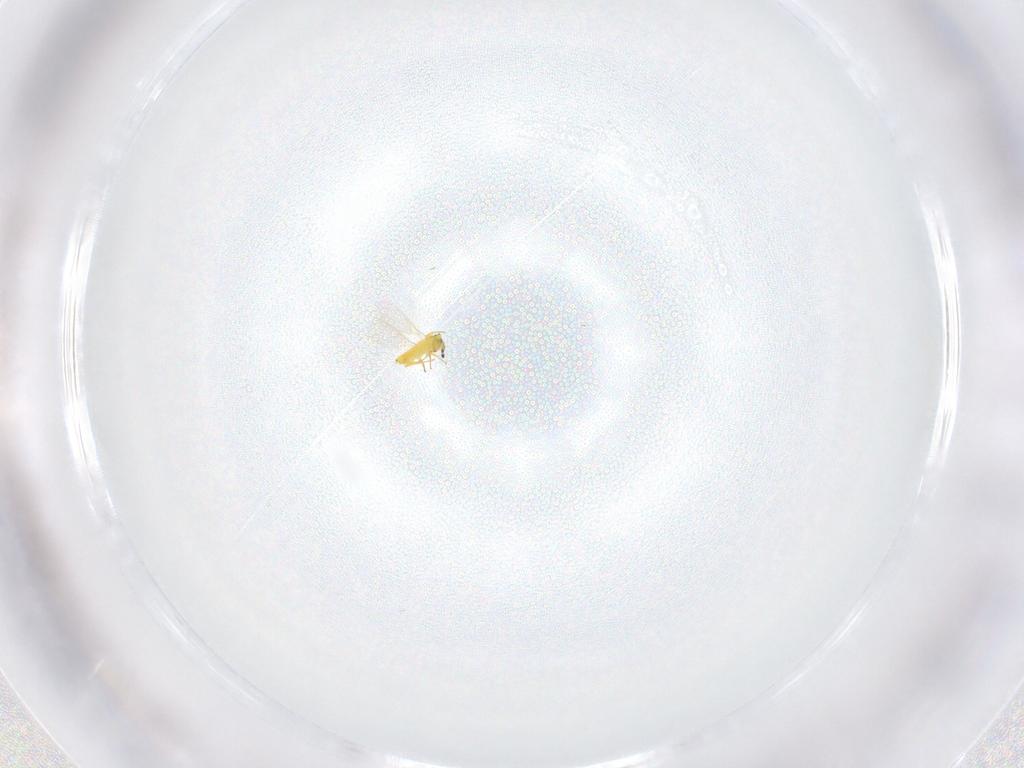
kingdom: Animalia
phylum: Arthropoda
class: Insecta
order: Hymenoptera
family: Aphelinidae
